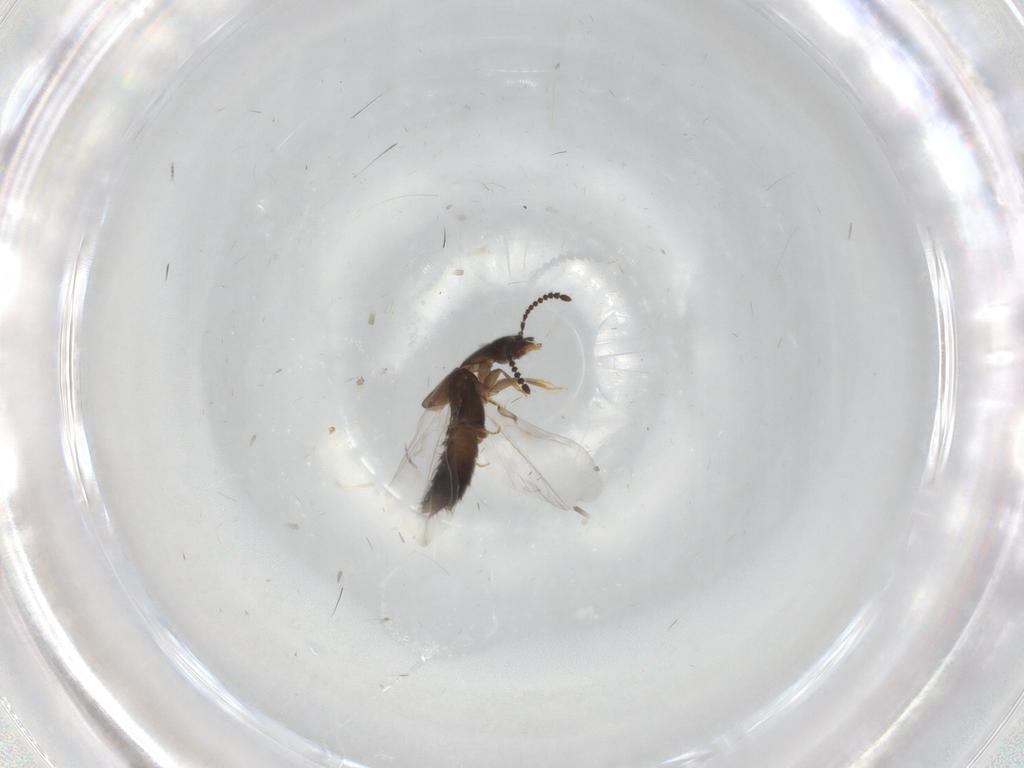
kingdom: Animalia
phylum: Arthropoda
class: Insecta
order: Coleoptera
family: Staphylinidae
